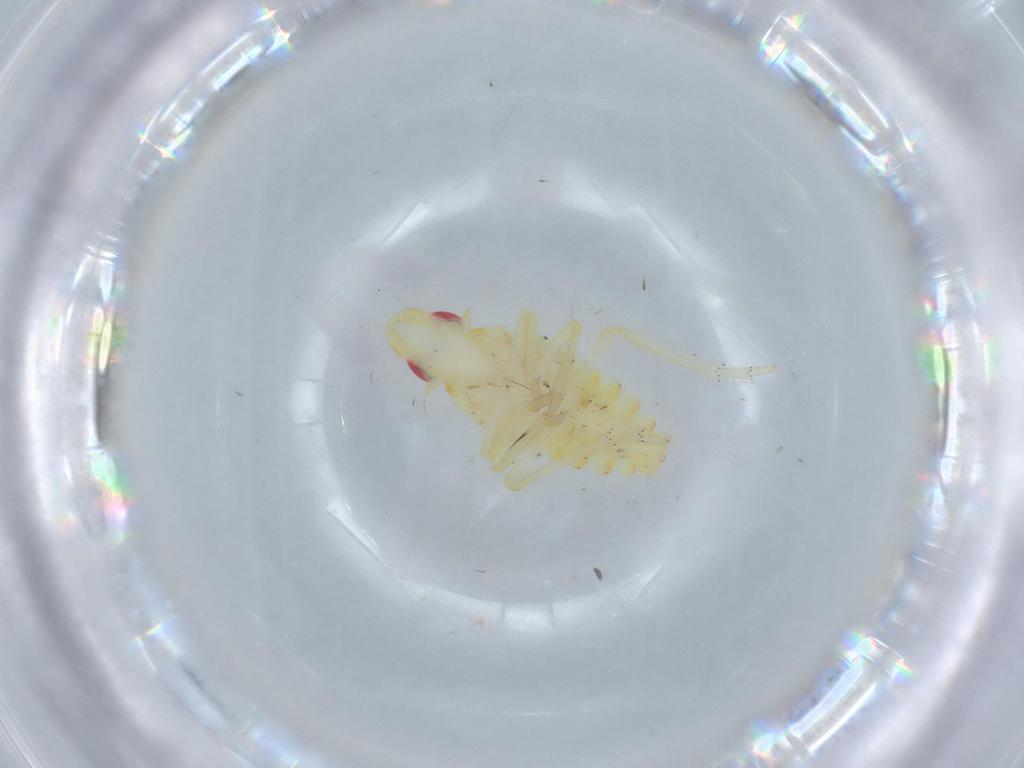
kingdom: Animalia
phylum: Arthropoda
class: Insecta
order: Hemiptera
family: Tropiduchidae
